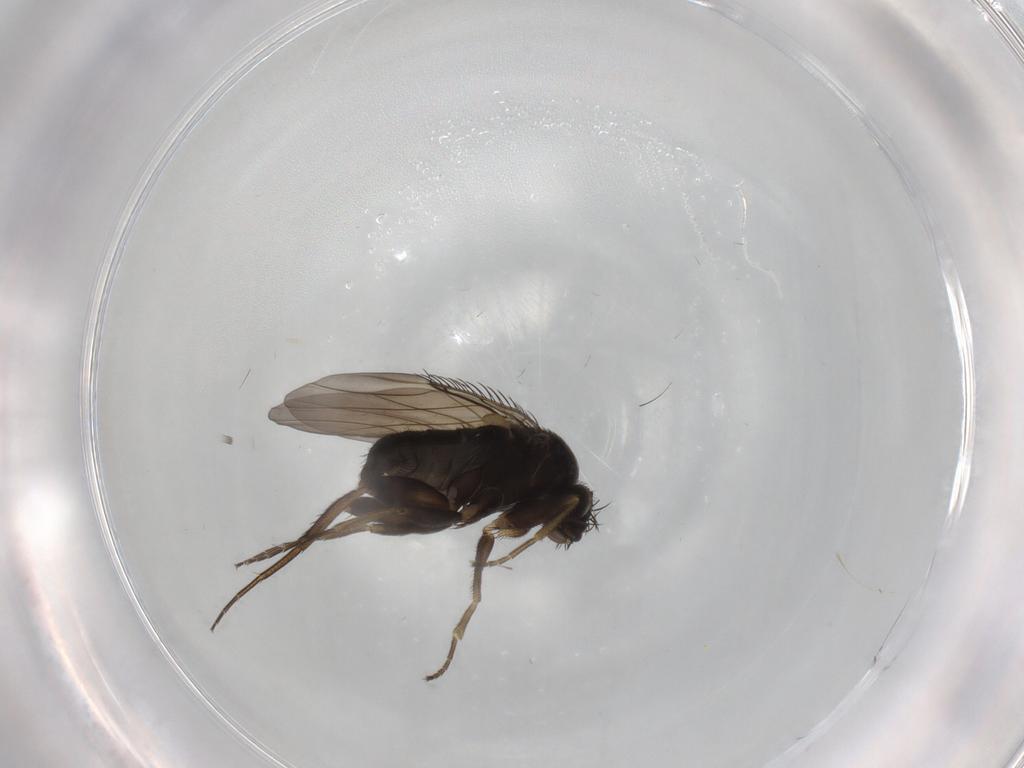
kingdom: Animalia
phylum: Arthropoda
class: Insecta
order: Diptera
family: Phoridae
